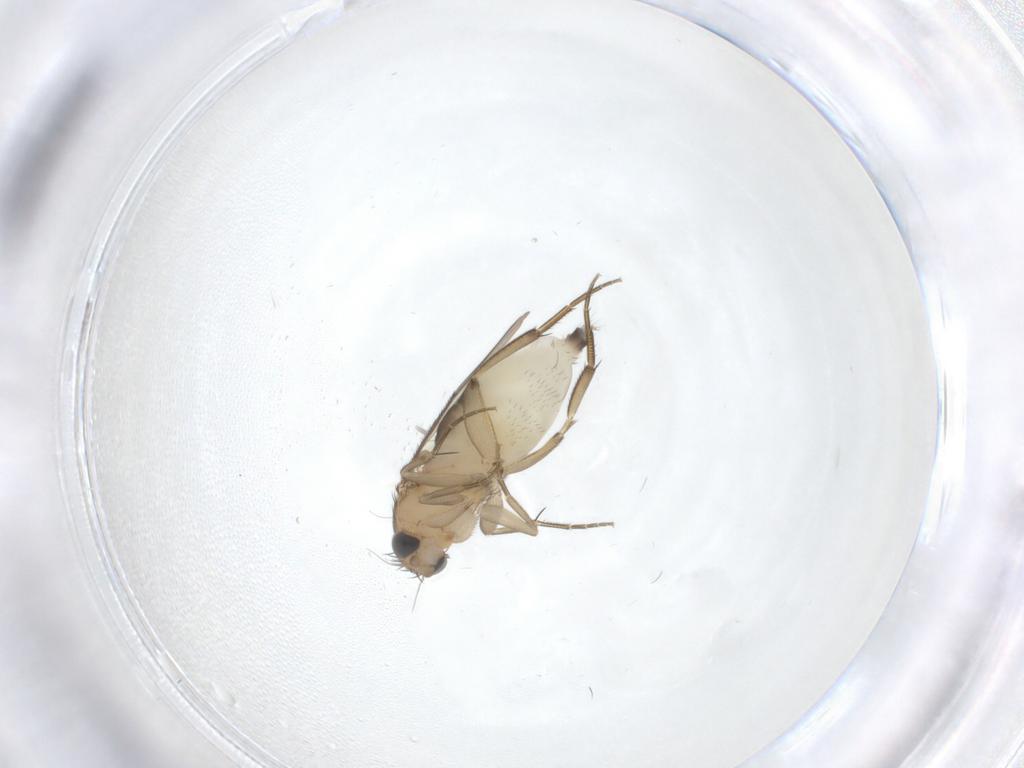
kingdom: Animalia
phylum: Arthropoda
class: Insecta
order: Diptera
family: Phoridae
